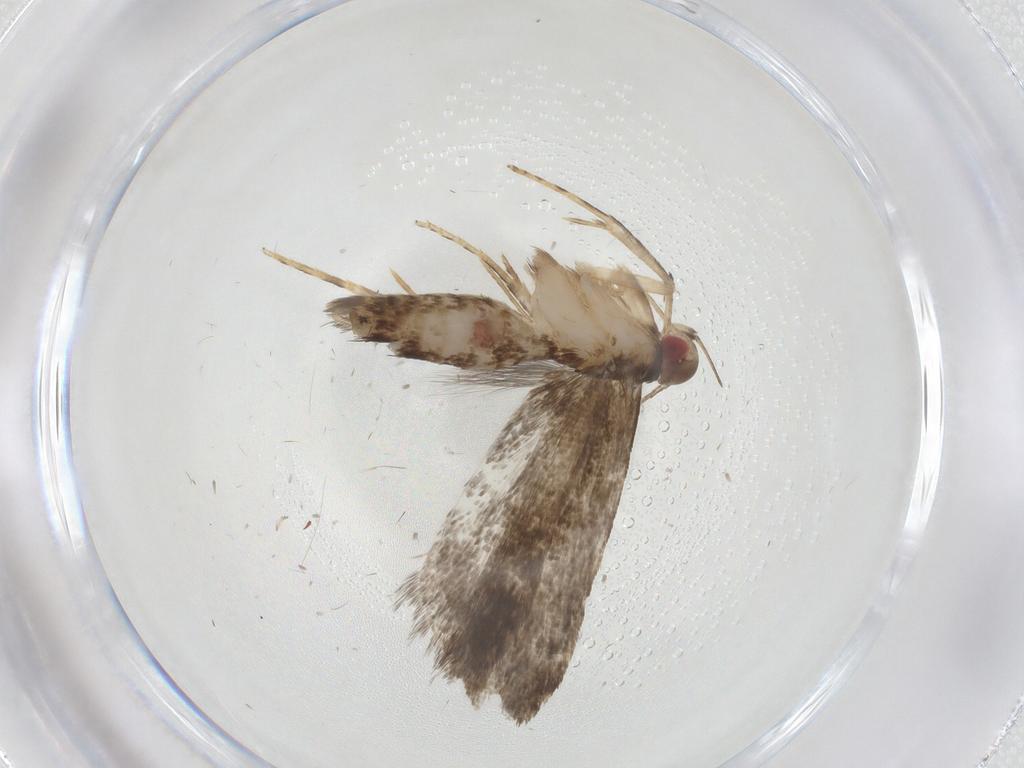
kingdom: Animalia
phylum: Arthropoda
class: Insecta
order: Lepidoptera
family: Gelechiidae
